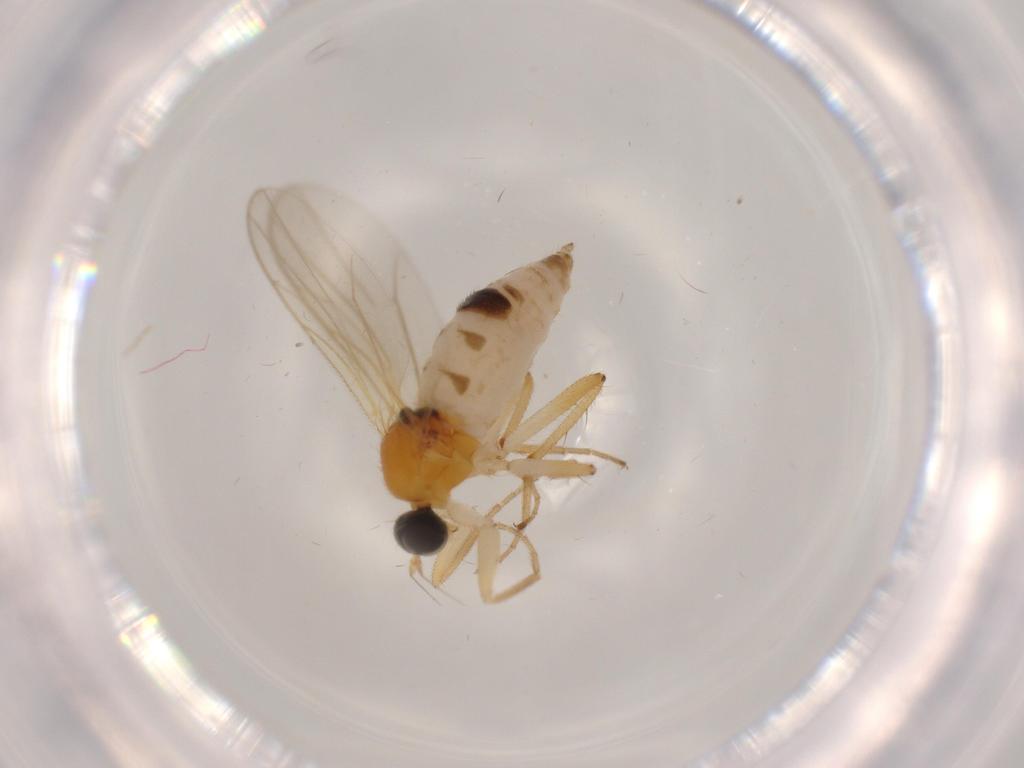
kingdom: Animalia
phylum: Arthropoda
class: Insecta
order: Diptera
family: Hybotidae
